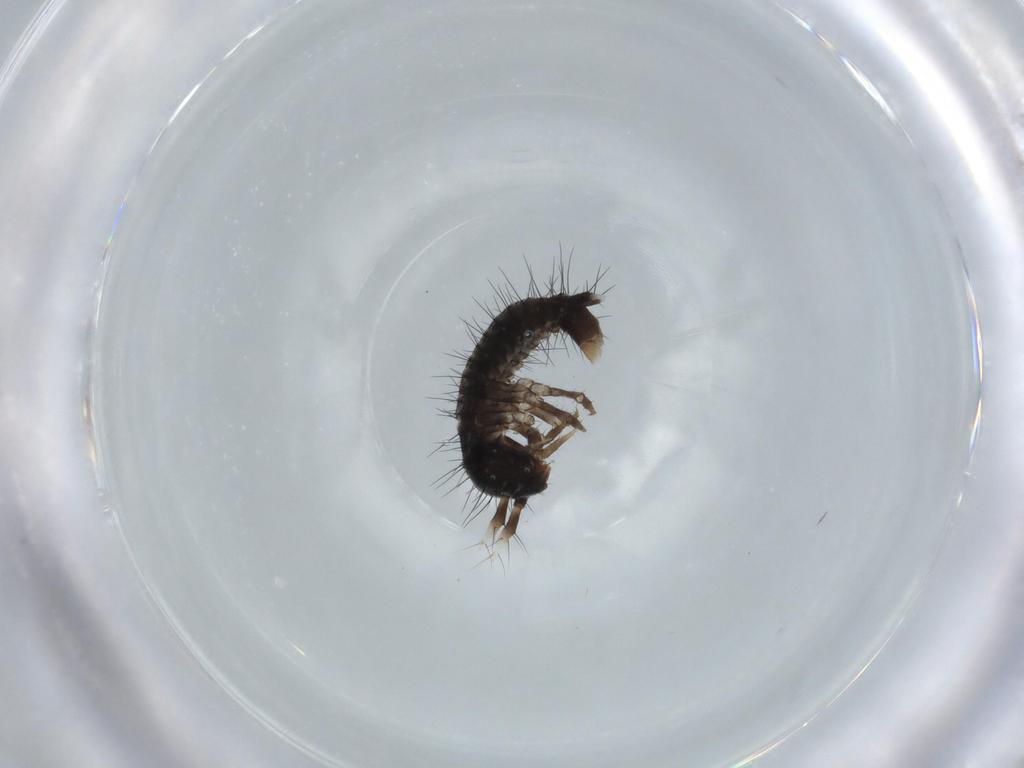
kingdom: Animalia
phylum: Arthropoda
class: Insecta
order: Coleoptera
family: Staphylinidae
